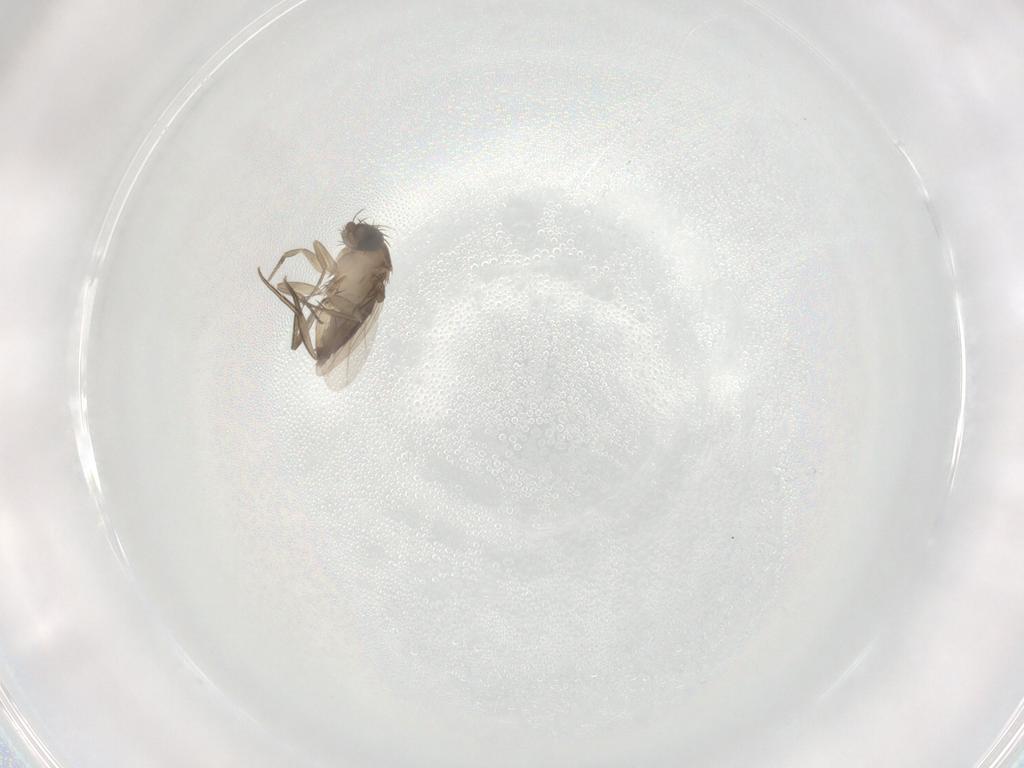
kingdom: Animalia
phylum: Arthropoda
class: Insecta
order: Diptera
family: Phoridae
